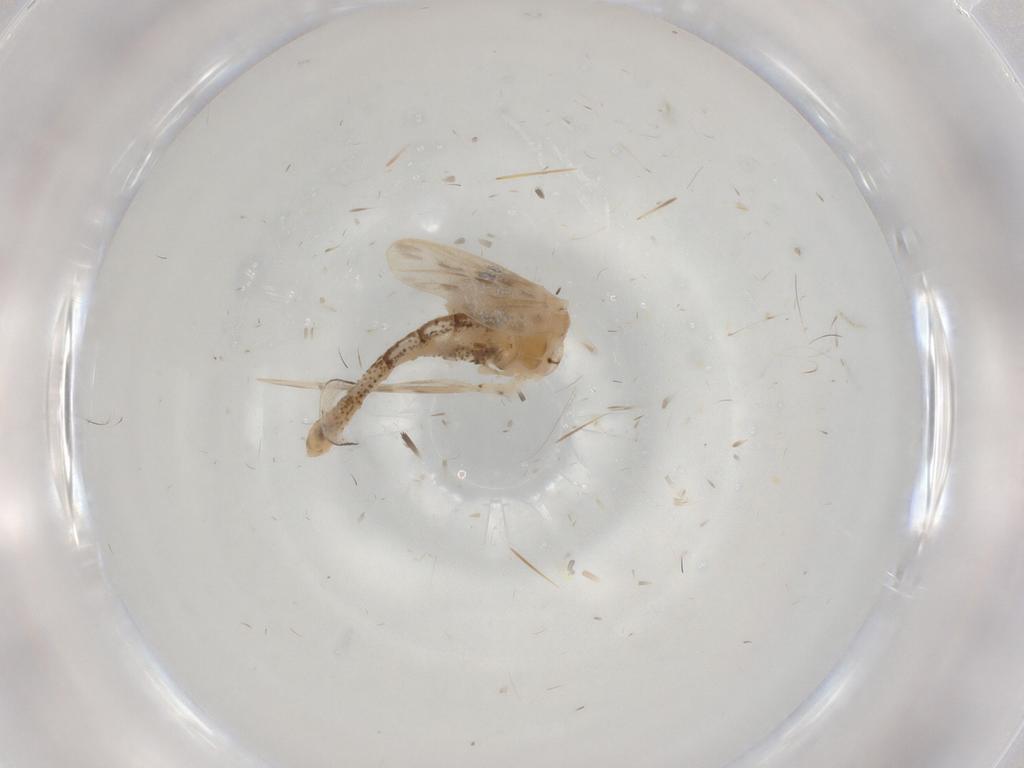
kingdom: Animalia
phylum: Arthropoda
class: Insecta
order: Diptera
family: Chaoboridae
